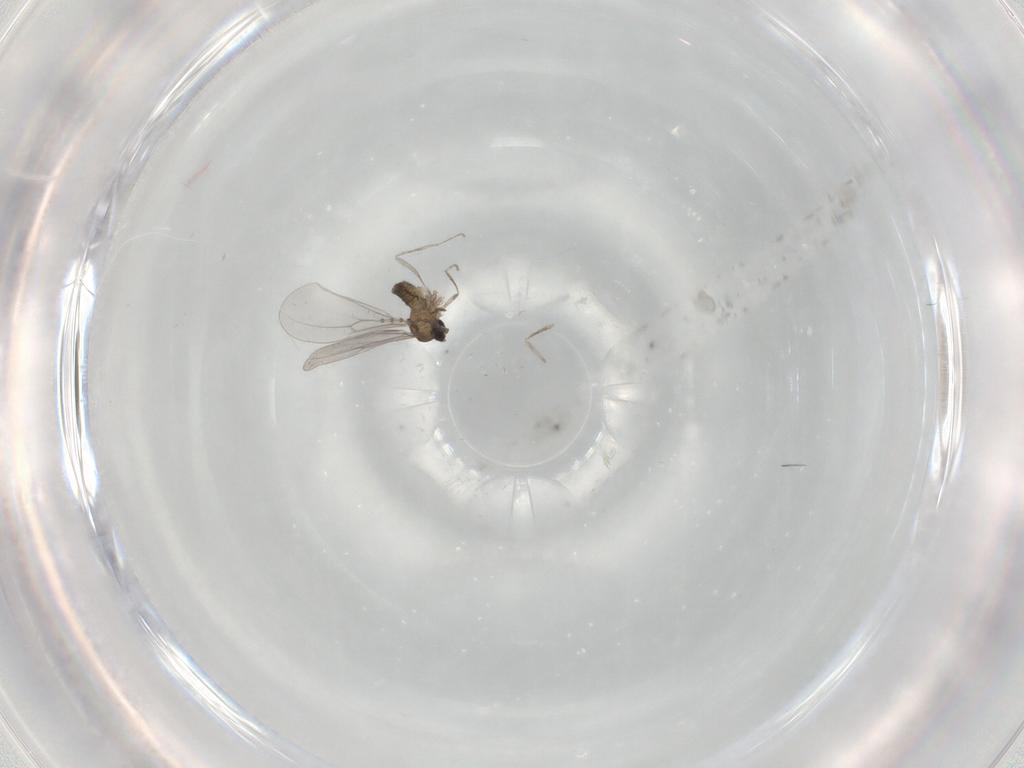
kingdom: Animalia
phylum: Arthropoda
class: Insecta
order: Diptera
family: Cecidomyiidae
